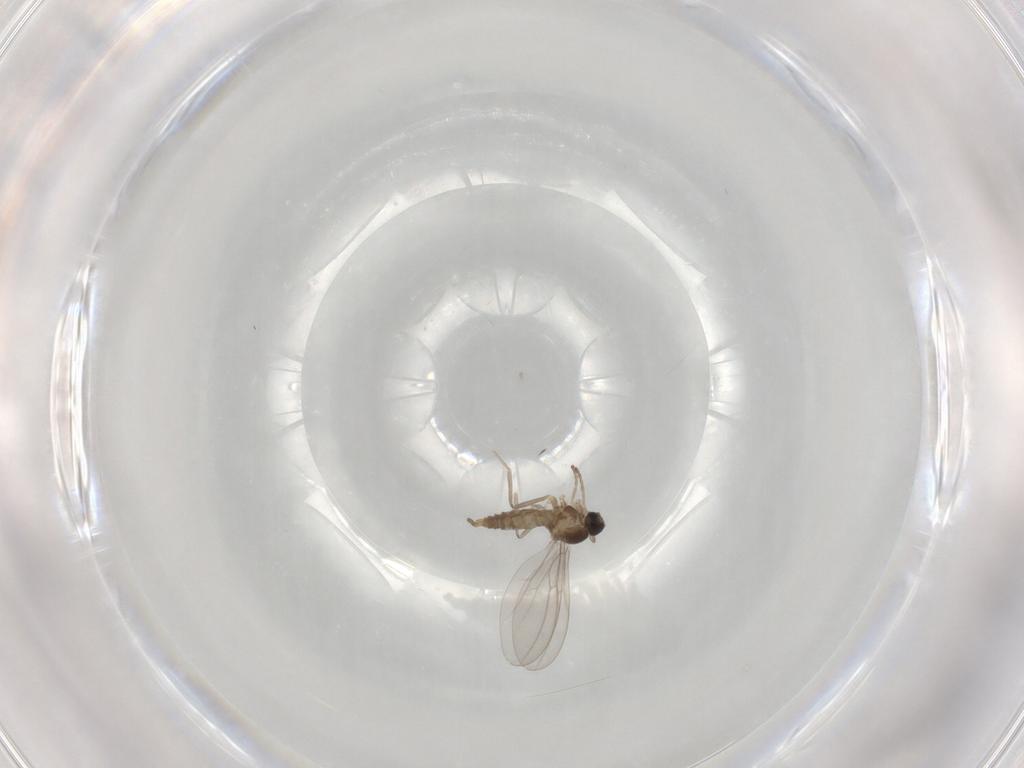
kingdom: Animalia
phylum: Arthropoda
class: Insecta
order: Diptera
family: Cecidomyiidae
